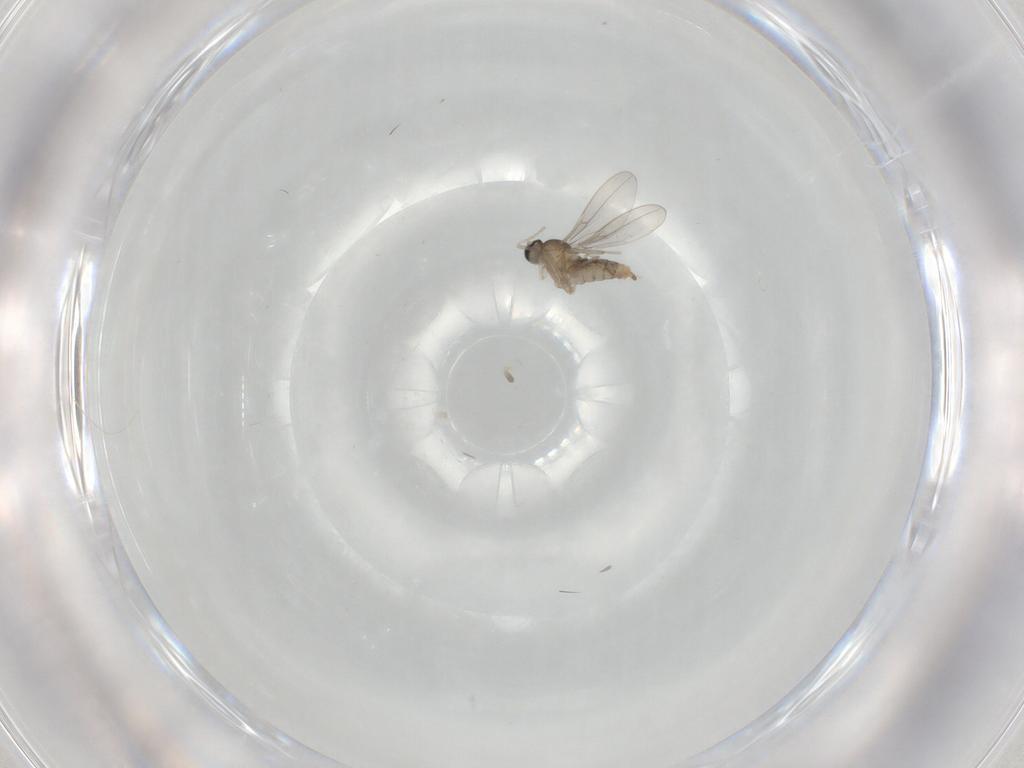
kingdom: Animalia
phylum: Arthropoda
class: Insecta
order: Diptera
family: Cecidomyiidae
